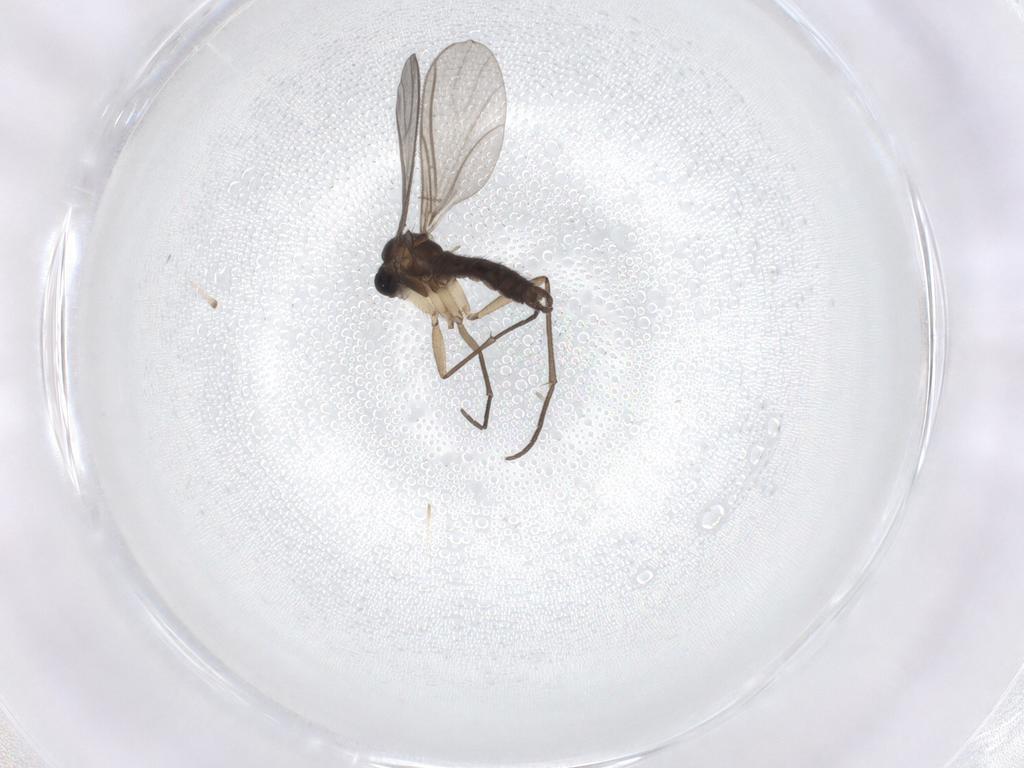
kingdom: Animalia
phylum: Arthropoda
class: Insecta
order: Diptera
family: Sciaridae
